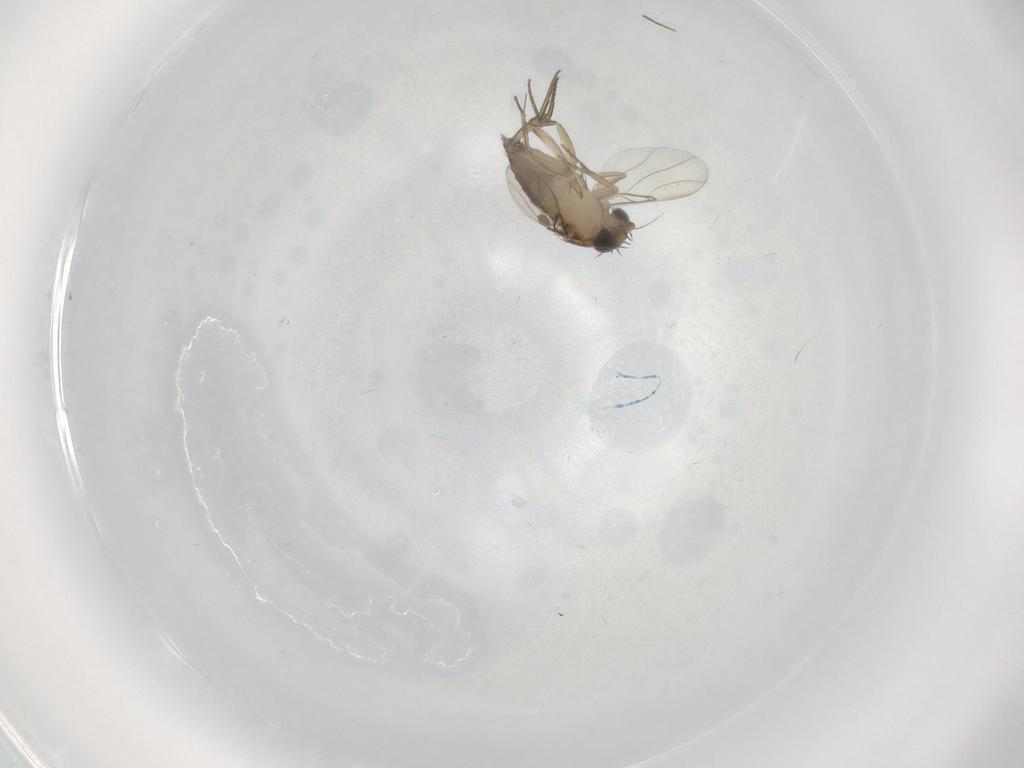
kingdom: Animalia
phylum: Arthropoda
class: Insecta
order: Diptera
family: Phoridae
